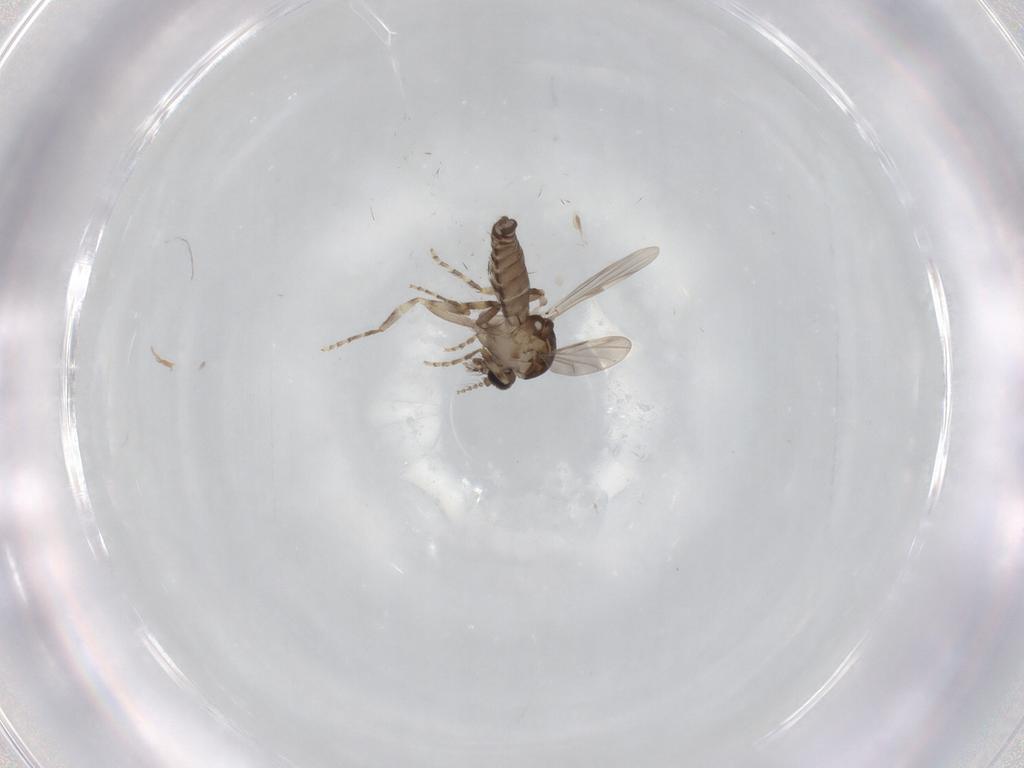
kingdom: Animalia
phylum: Arthropoda
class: Insecta
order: Diptera
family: Ceratopogonidae
